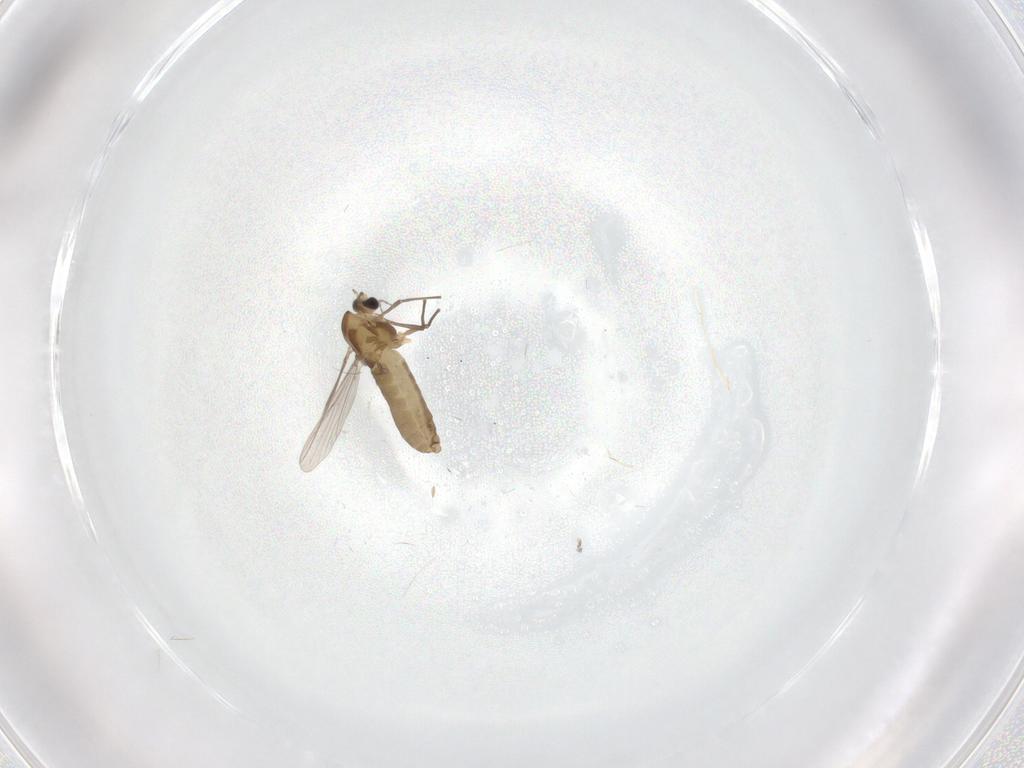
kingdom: Animalia
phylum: Arthropoda
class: Insecta
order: Diptera
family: Chironomidae
